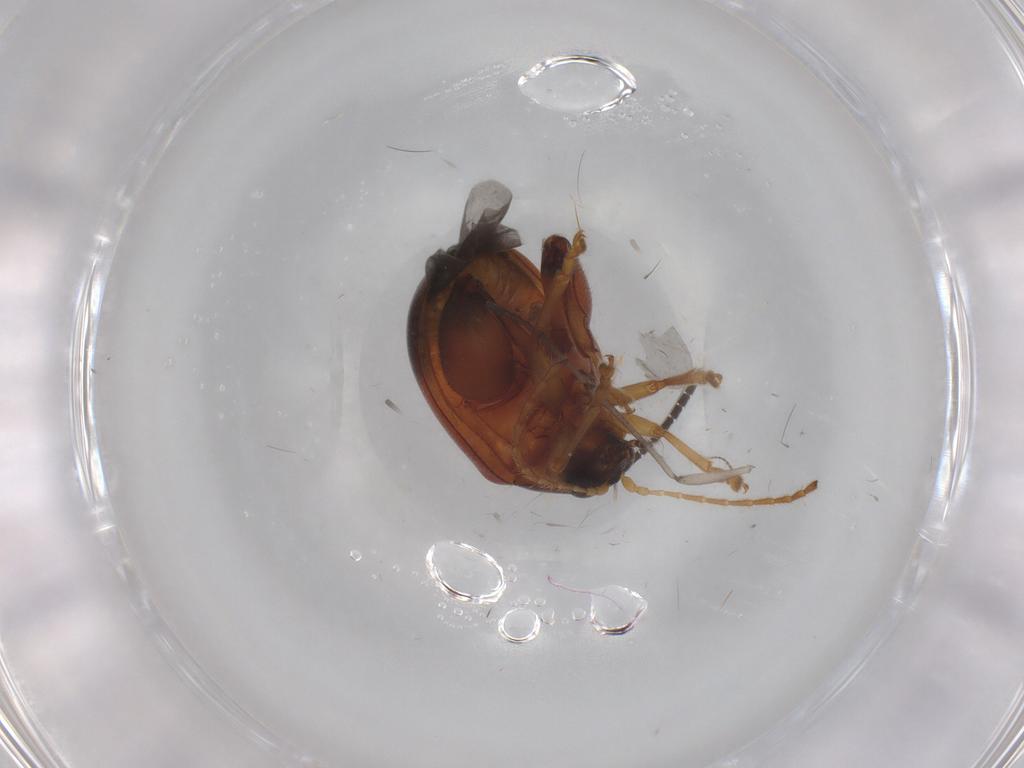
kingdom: Animalia
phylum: Arthropoda
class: Insecta
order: Coleoptera
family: Chrysomelidae
